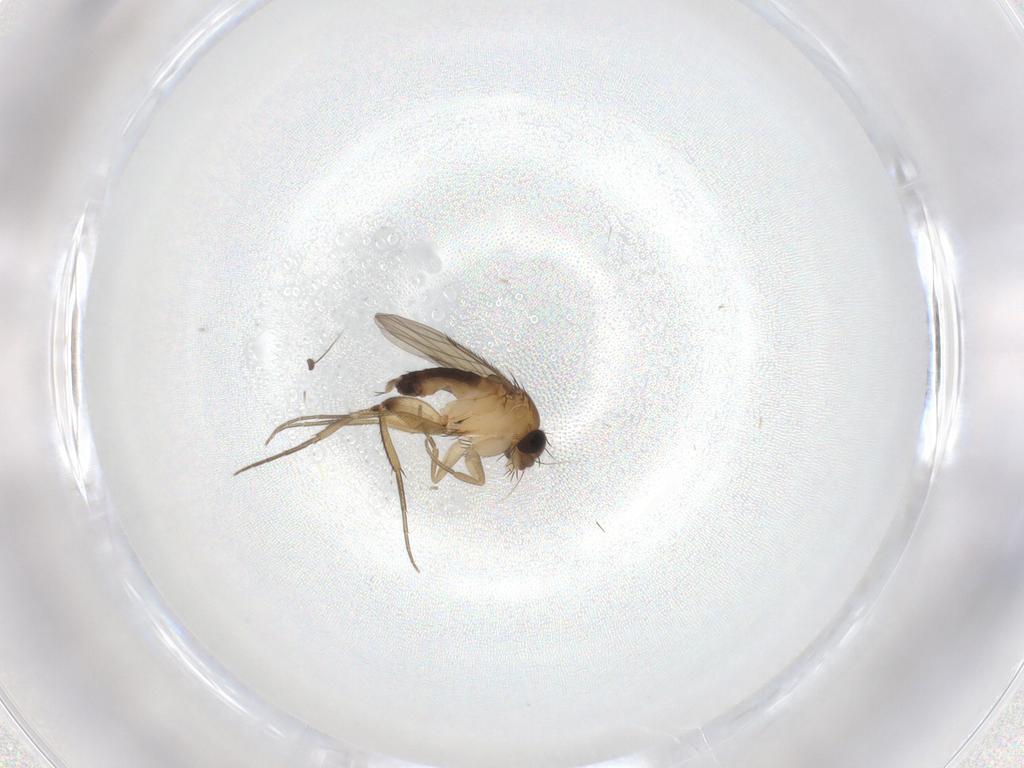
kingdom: Animalia
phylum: Arthropoda
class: Insecta
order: Diptera
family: Phoridae
